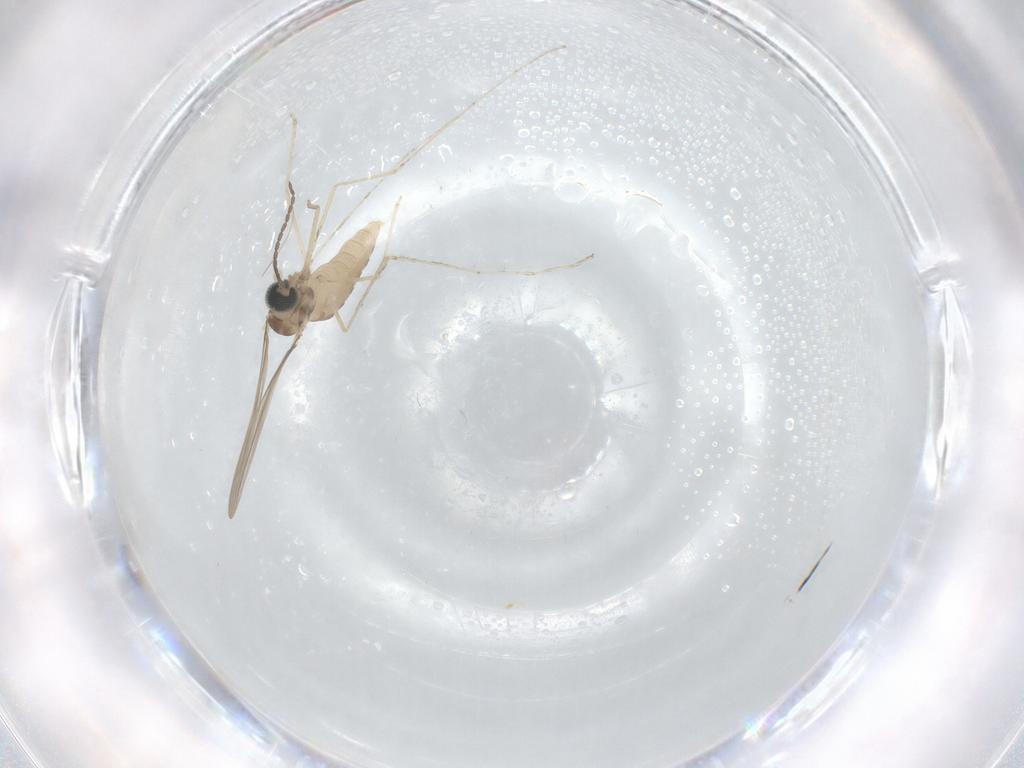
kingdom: Animalia
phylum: Arthropoda
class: Insecta
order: Diptera
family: Cecidomyiidae
